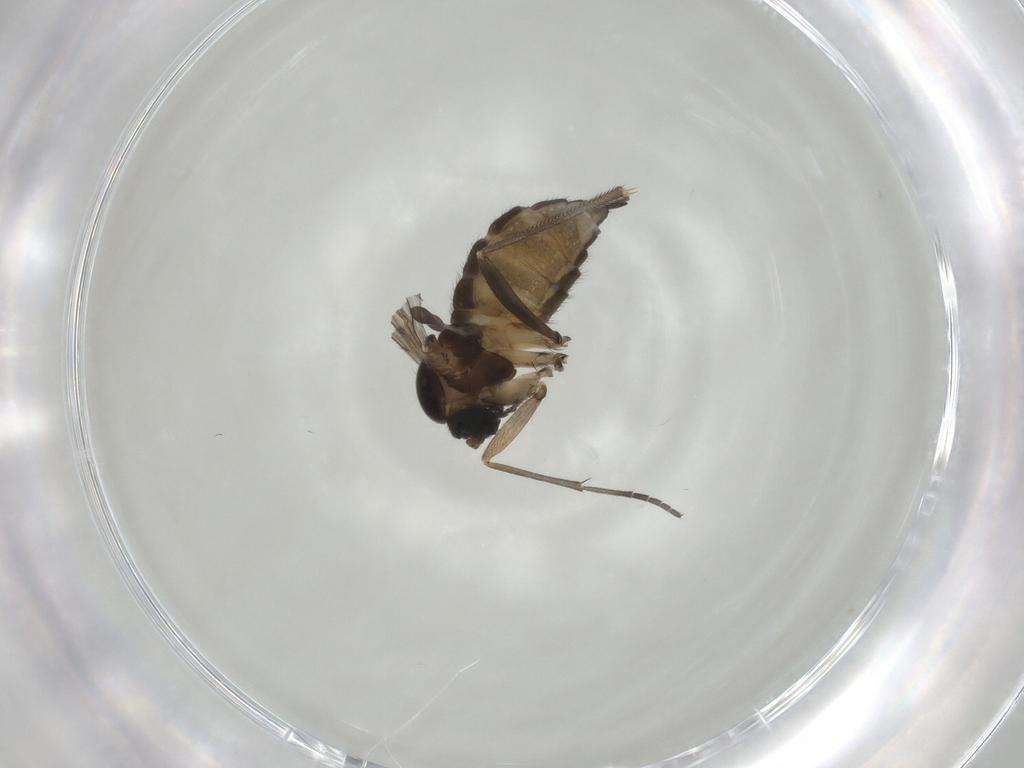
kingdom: Animalia
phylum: Arthropoda
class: Insecta
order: Diptera
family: Sciaridae
